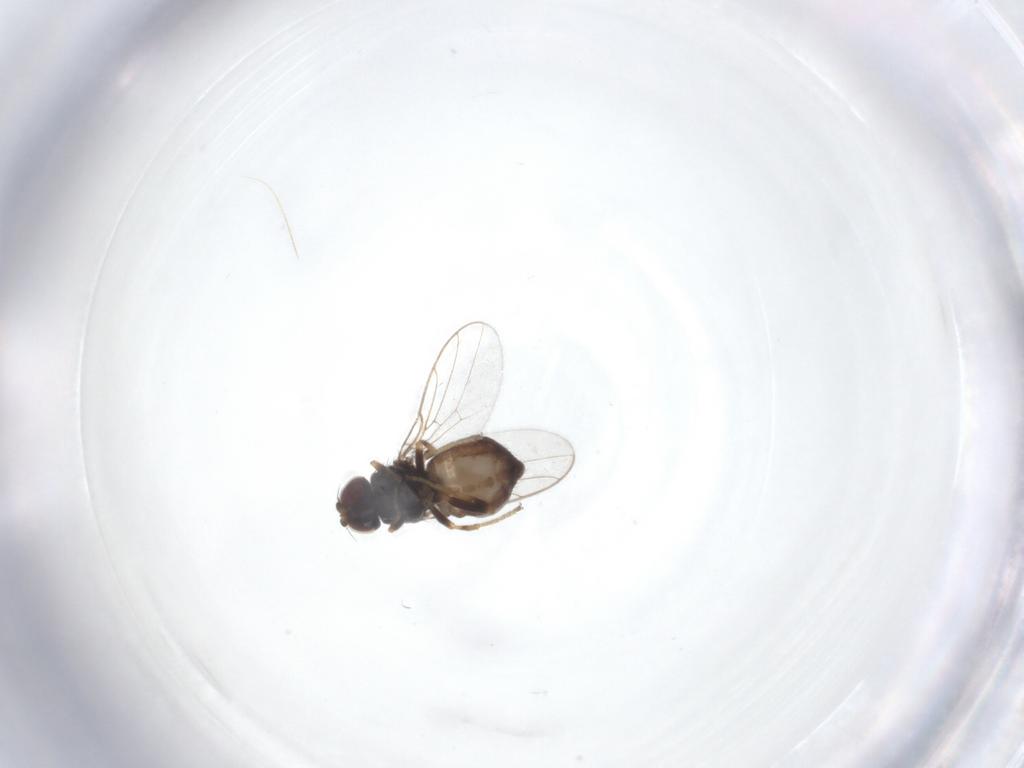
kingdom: Animalia
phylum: Arthropoda
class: Insecta
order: Diptera
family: Chloropidae
